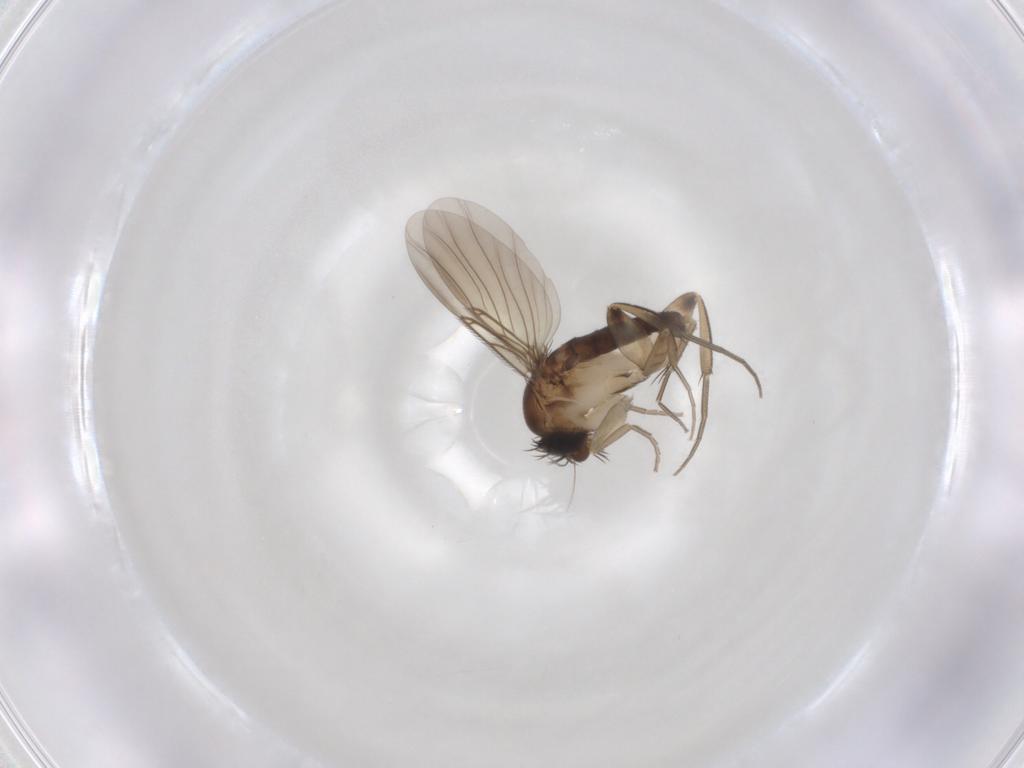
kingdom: Animalia
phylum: Arthropoda
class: Insecta
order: Diptera
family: Phoridae
